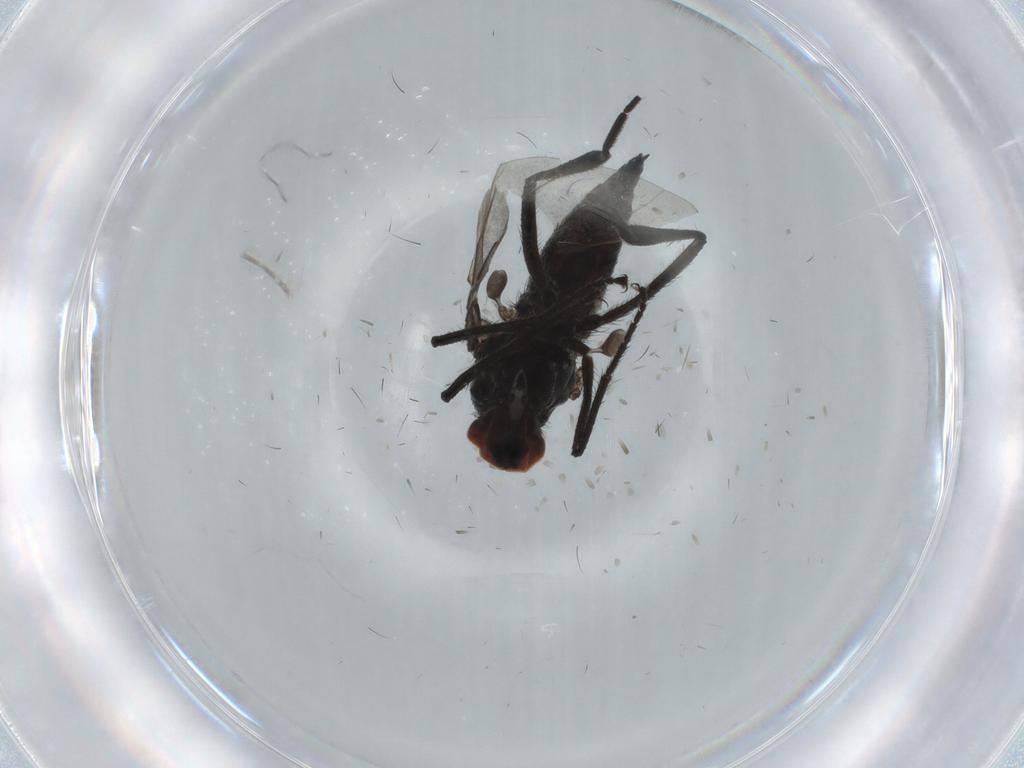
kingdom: Animalia
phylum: Arthropoda
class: Insecta
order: Diptera
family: Hybotidae
